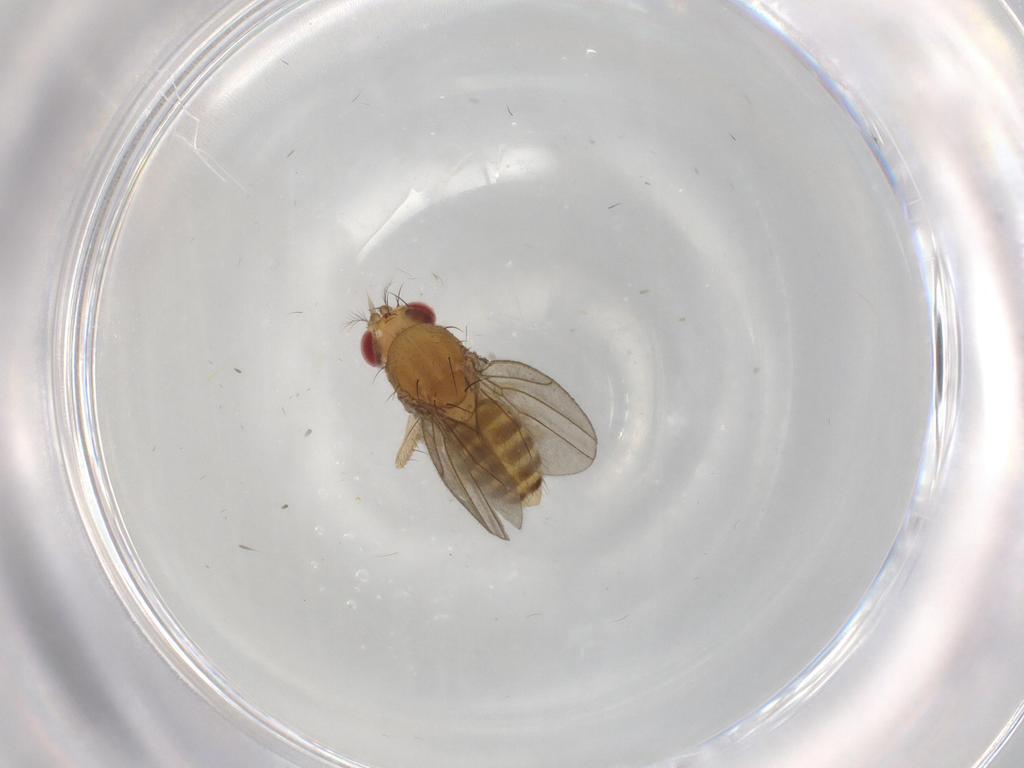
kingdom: Animalia
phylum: Arthropoda
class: Insecta
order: Diptera
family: Drosophilidae
